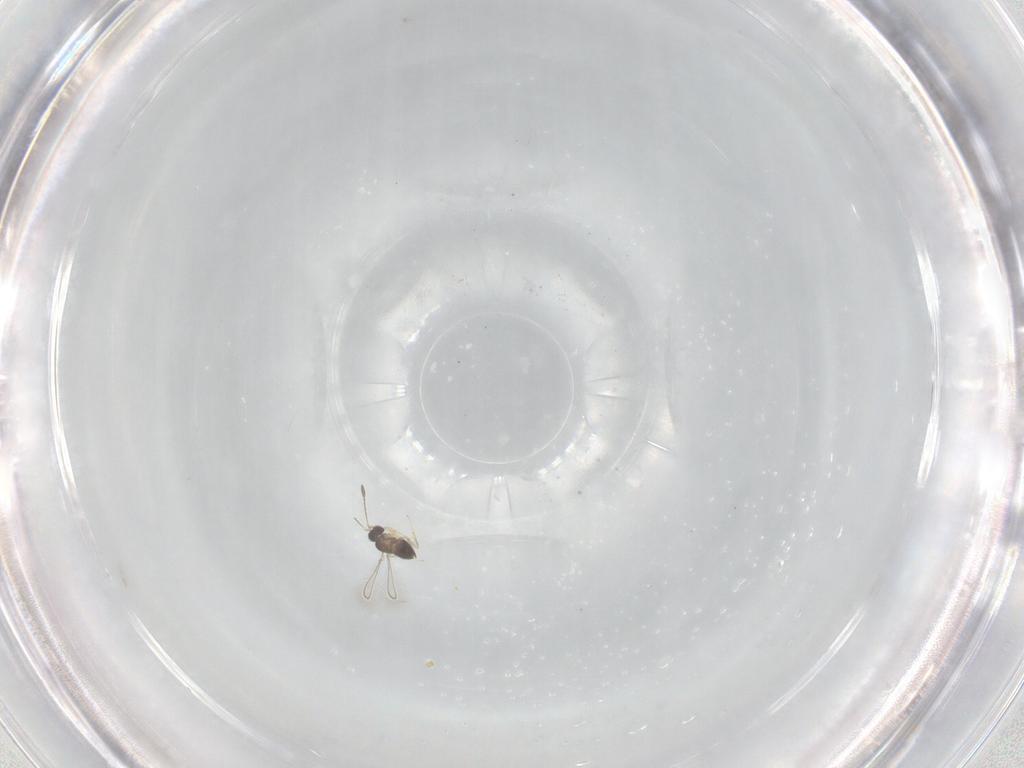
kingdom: Animalia
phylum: Arthropoda
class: Insecta
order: Hymenoptera
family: Mymaridae
